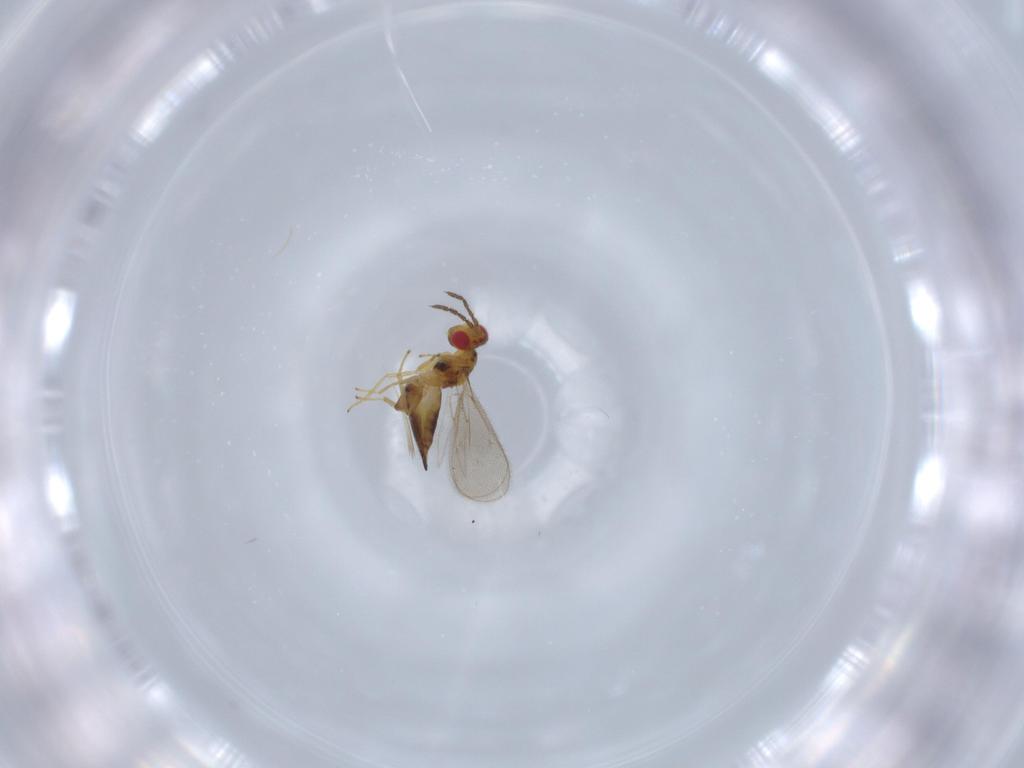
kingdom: Animalia
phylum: Arthropoda
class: Insecta
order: Hymenoptera
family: Eulophidae
